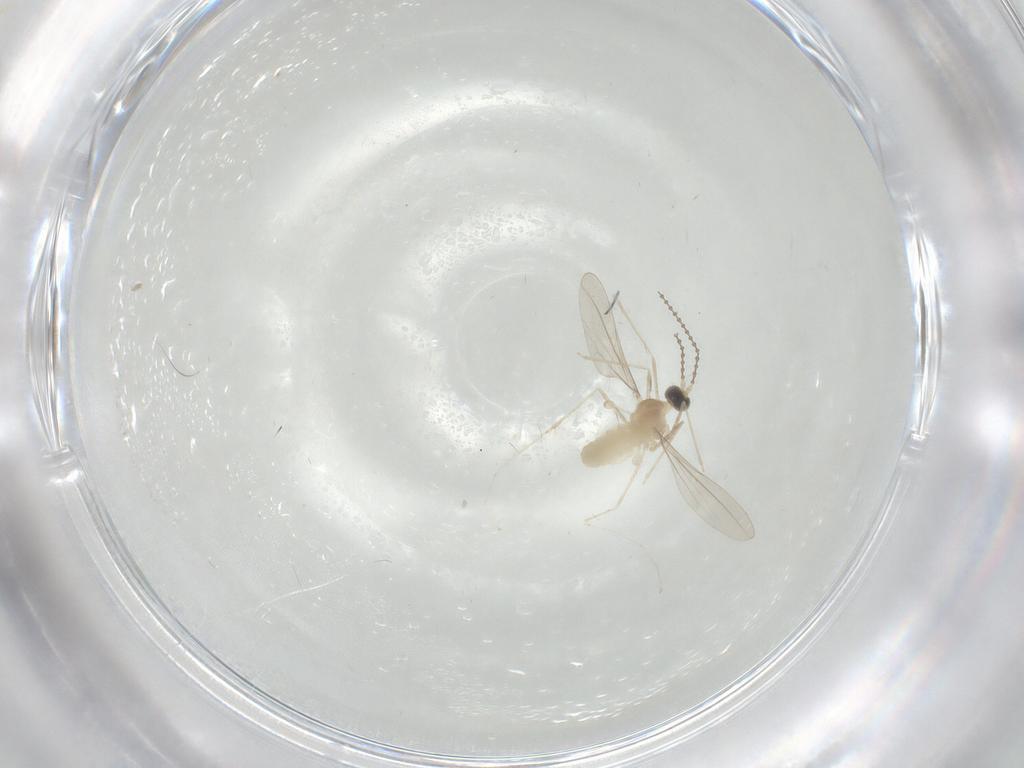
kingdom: Animalia
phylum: Arthropoda
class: Insecta
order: Diptera
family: Cecidomyiidae
